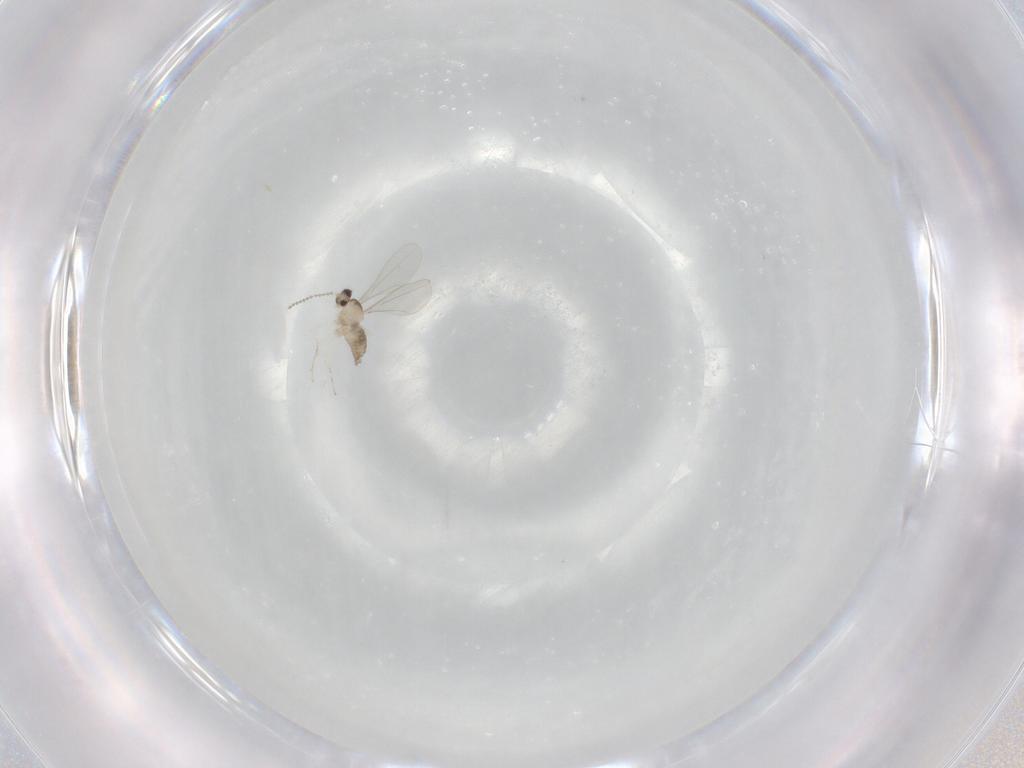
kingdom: Animalia
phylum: Arthropoda
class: Insecta
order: Diptera
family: Cecidomyiidae
